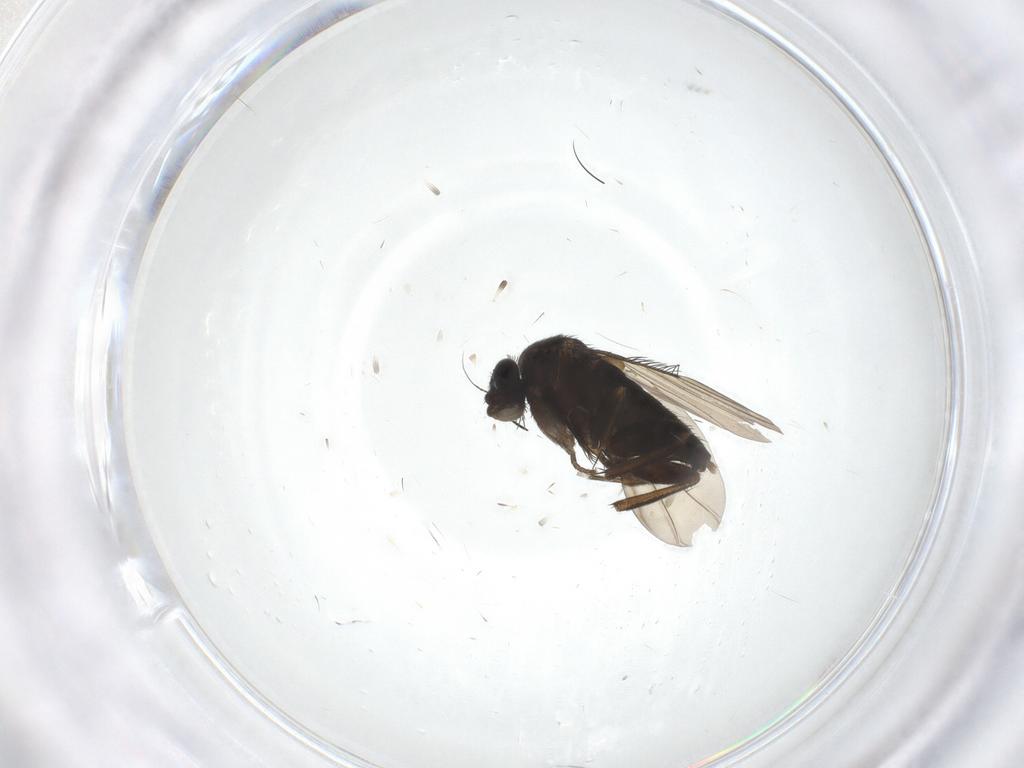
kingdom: Animalia
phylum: Arthropoda
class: Insecta
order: Diptera
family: Phoridae
